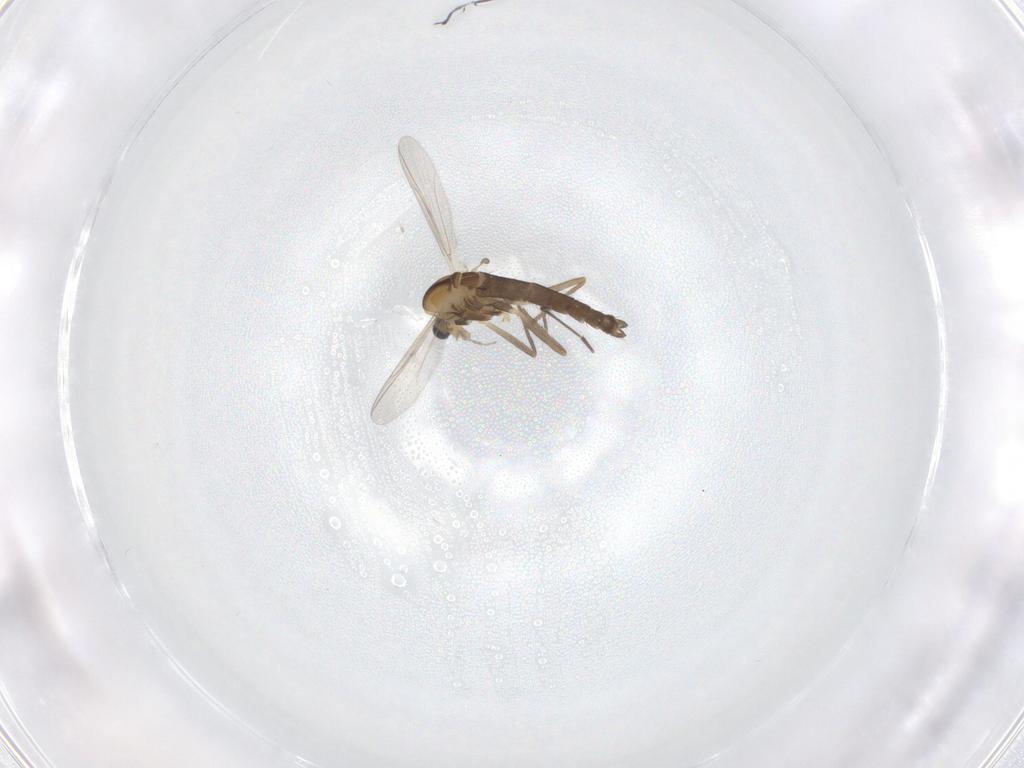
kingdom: Animalia
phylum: Arthropoda
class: Insecta
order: Diptera
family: Chironomidae
